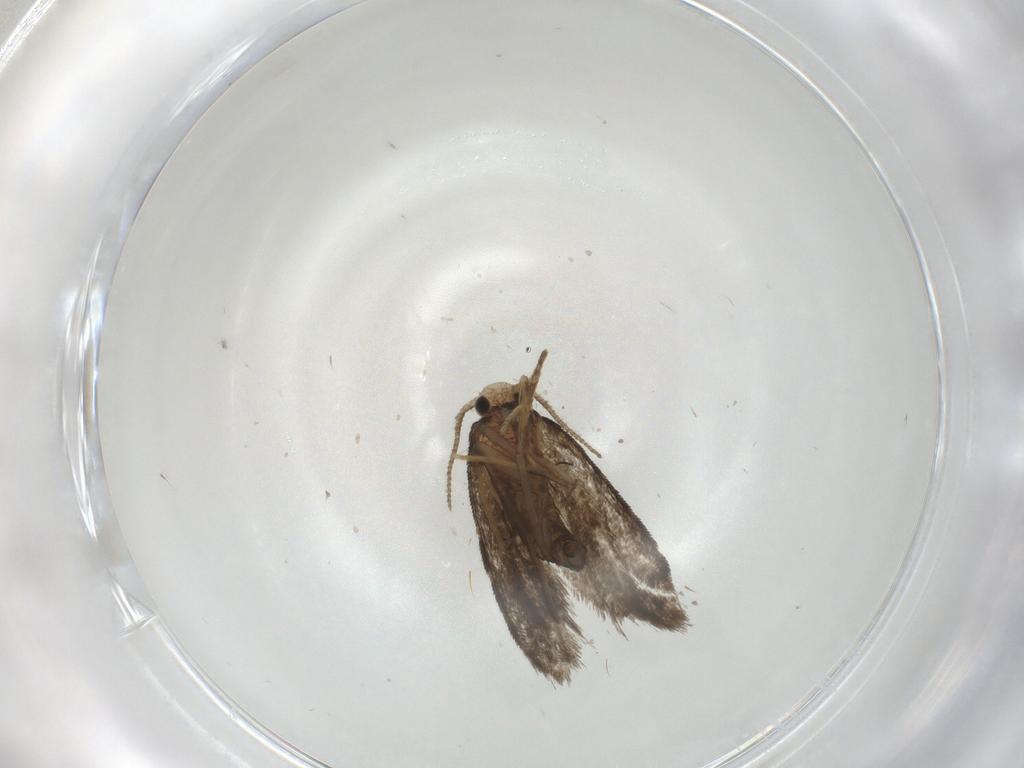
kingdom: Animalia
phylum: Arthropoda
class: Insecta
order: Lepidoptera
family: Psychidae
